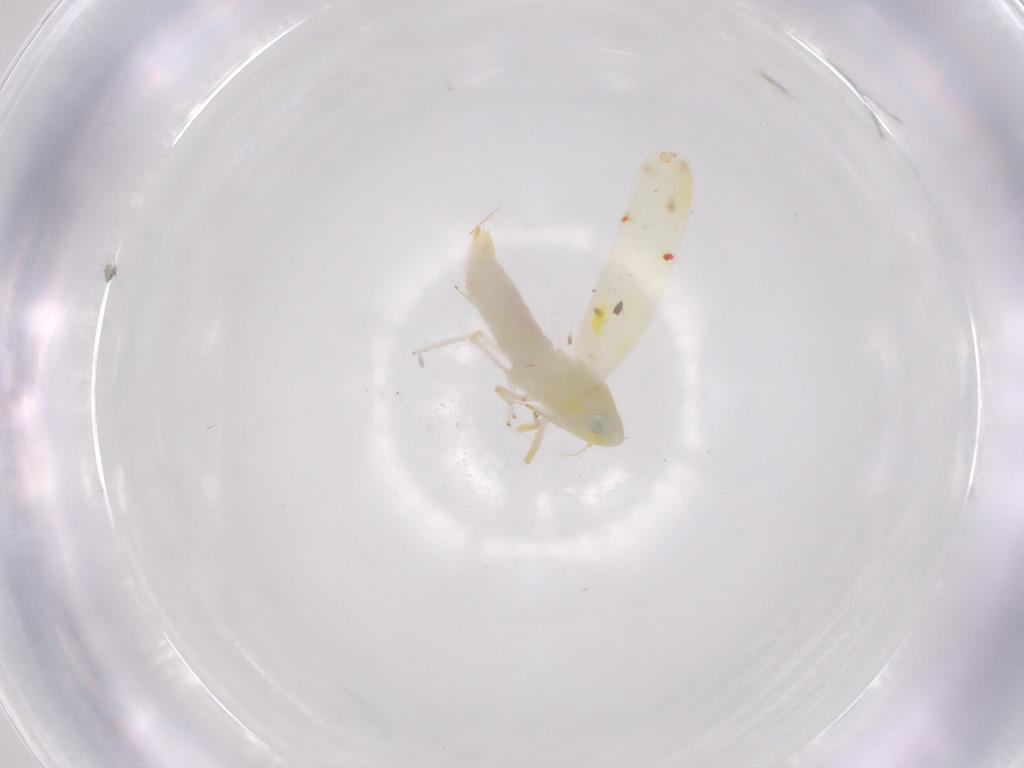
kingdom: Animalia
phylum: Arthropoda
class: Insecta
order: Hemiptera
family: Cicadellidae
